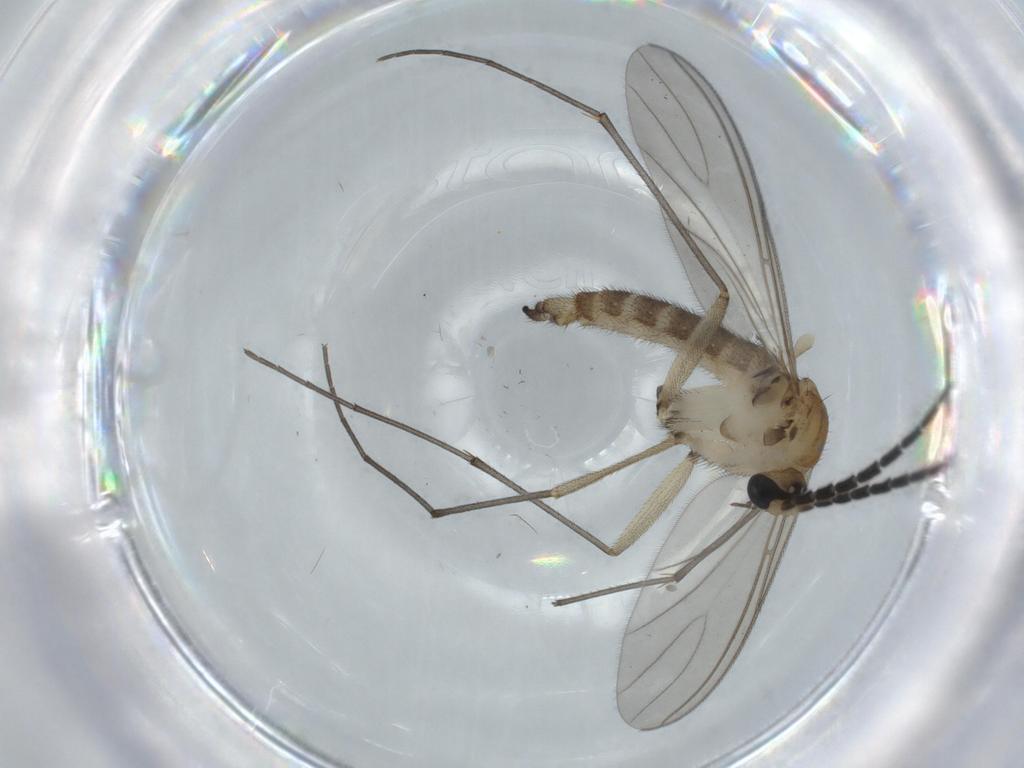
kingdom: Animalia
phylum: Arthropoda
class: Insecta
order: Diptera
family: Sciaridae
